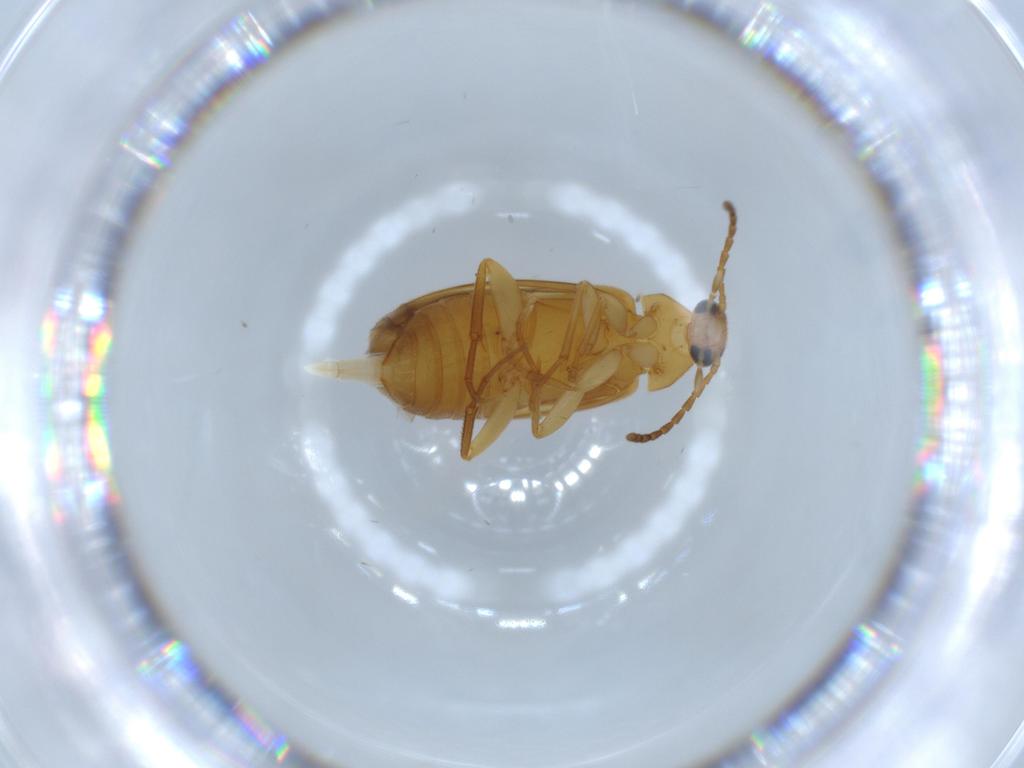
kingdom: Animalia
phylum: Arthropoda
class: Insecta
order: Coleoptera
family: Scraptiidae
